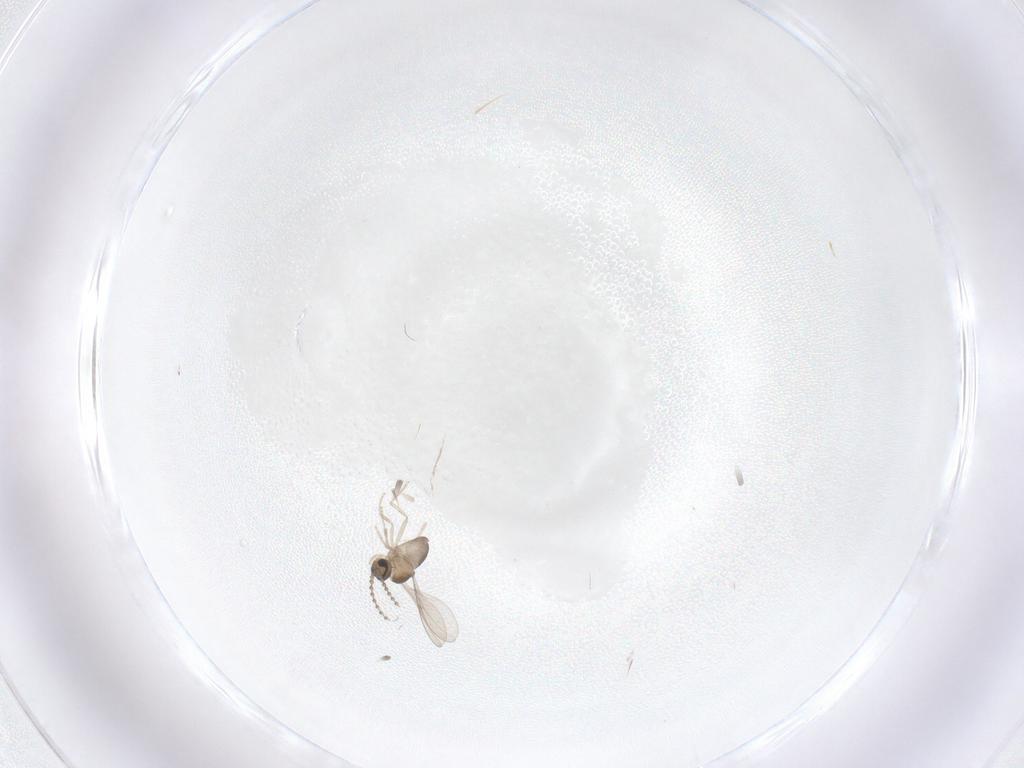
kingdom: Animalia
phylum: Arthropoda
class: Insecta
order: Diptera
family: Cecidomyiidae
